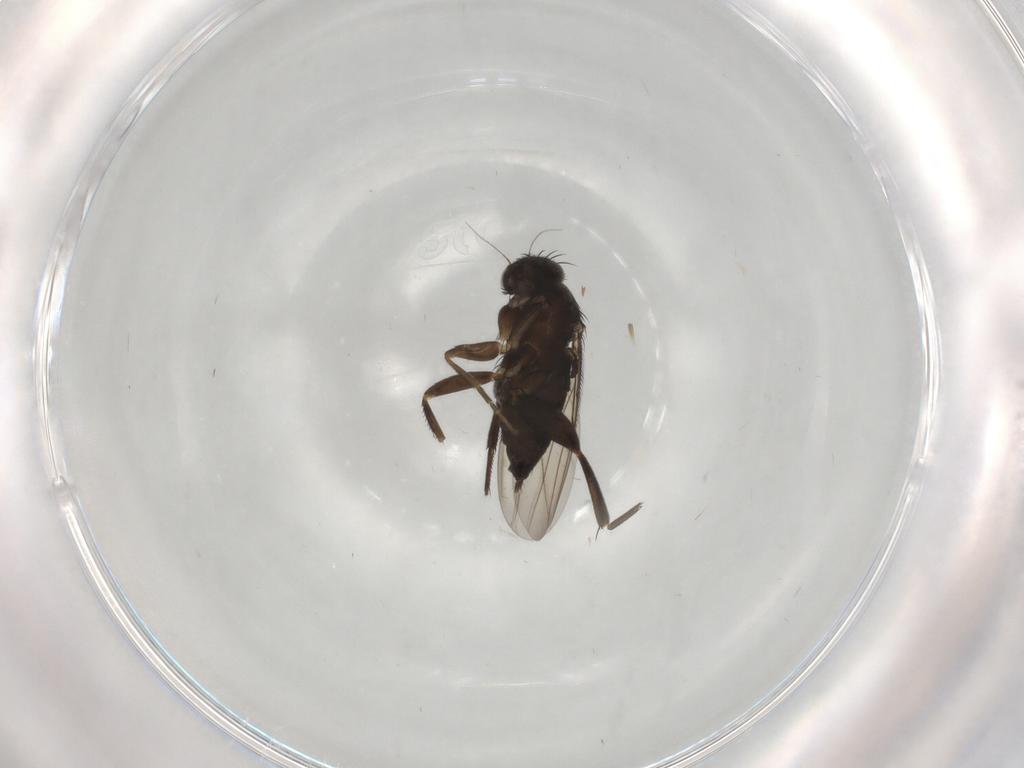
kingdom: Animalia
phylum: Arthropoda
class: Insecta
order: Diptera
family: Phoridae
